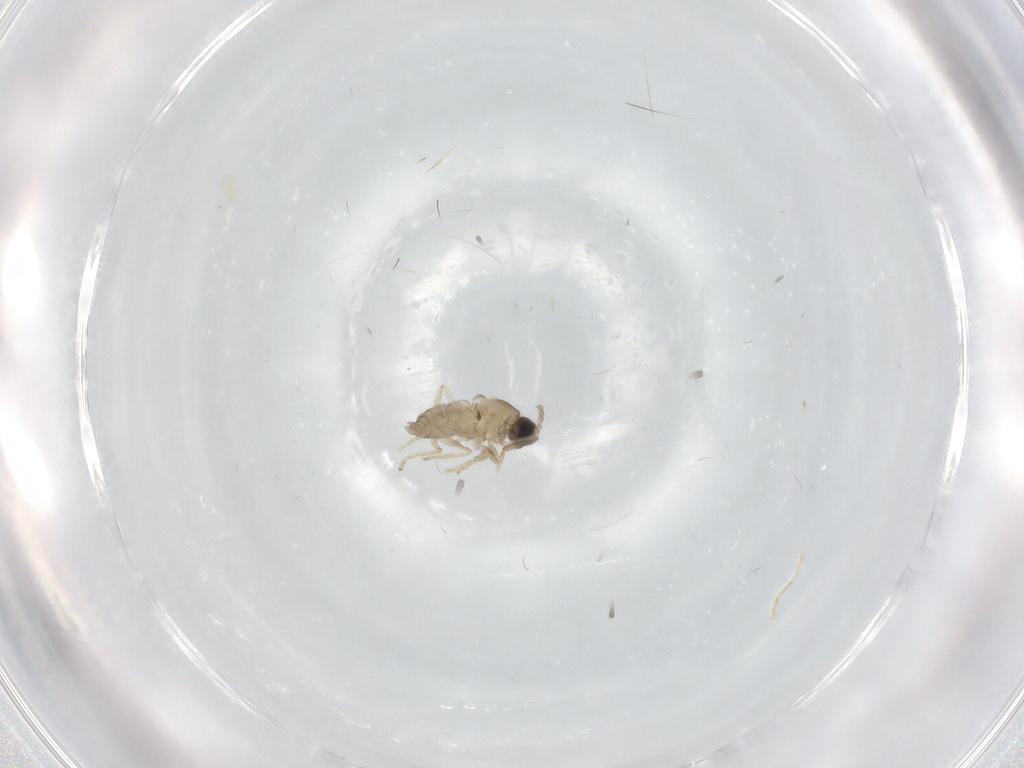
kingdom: Animalia
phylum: Arthropoda
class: Insecta
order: Diptera
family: Cecidomyiidae
